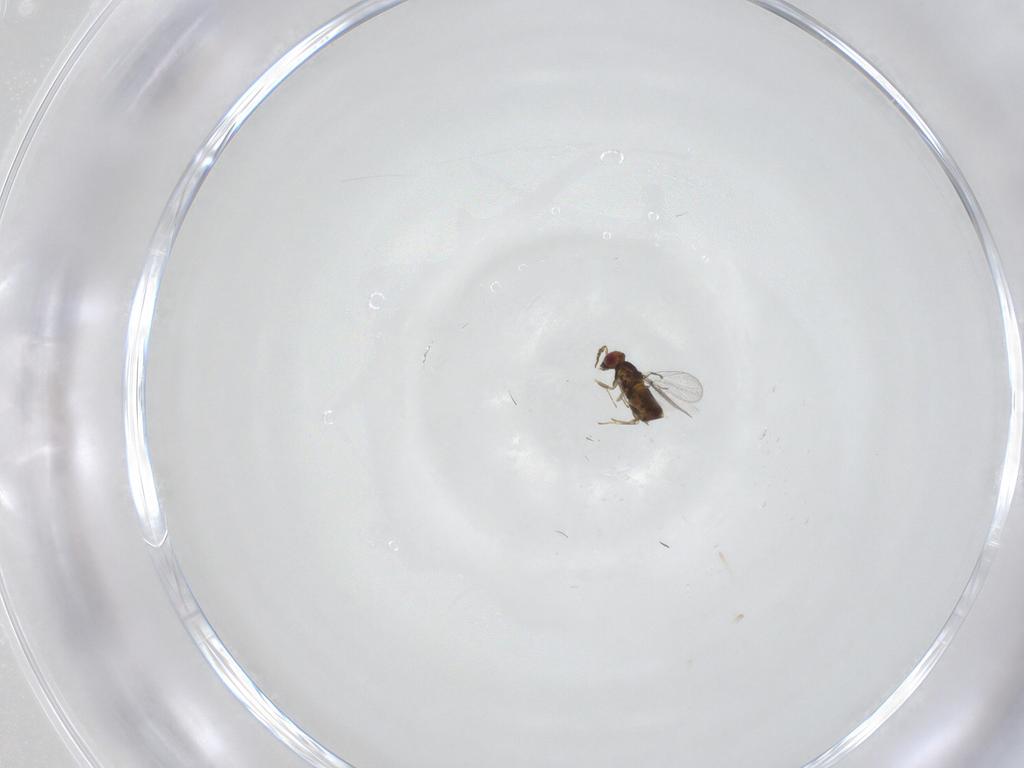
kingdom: Animalia
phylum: Arthropoda
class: Insecta
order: Hymenoptera
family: Trichogrammatidae
